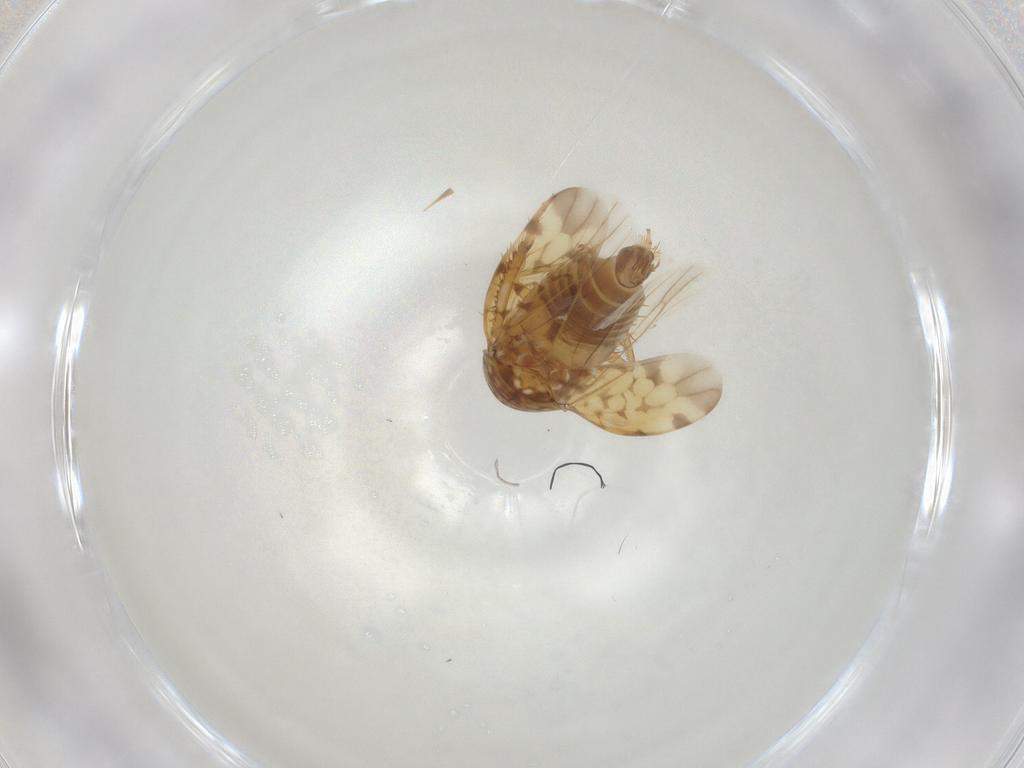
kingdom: Animalia
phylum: Arthropoda
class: Insecta
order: Hemiptera
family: Cicadellidae
